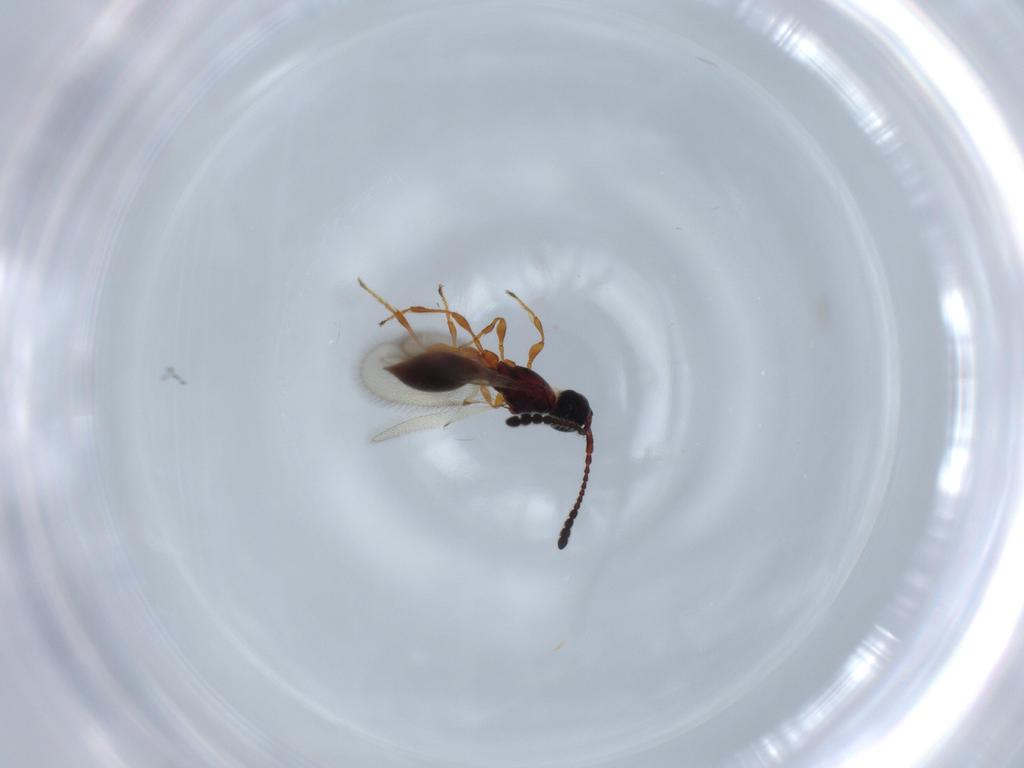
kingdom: Animalia
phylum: Arthropoda
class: Insecta
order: Hymenoptera
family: Diapriidae
